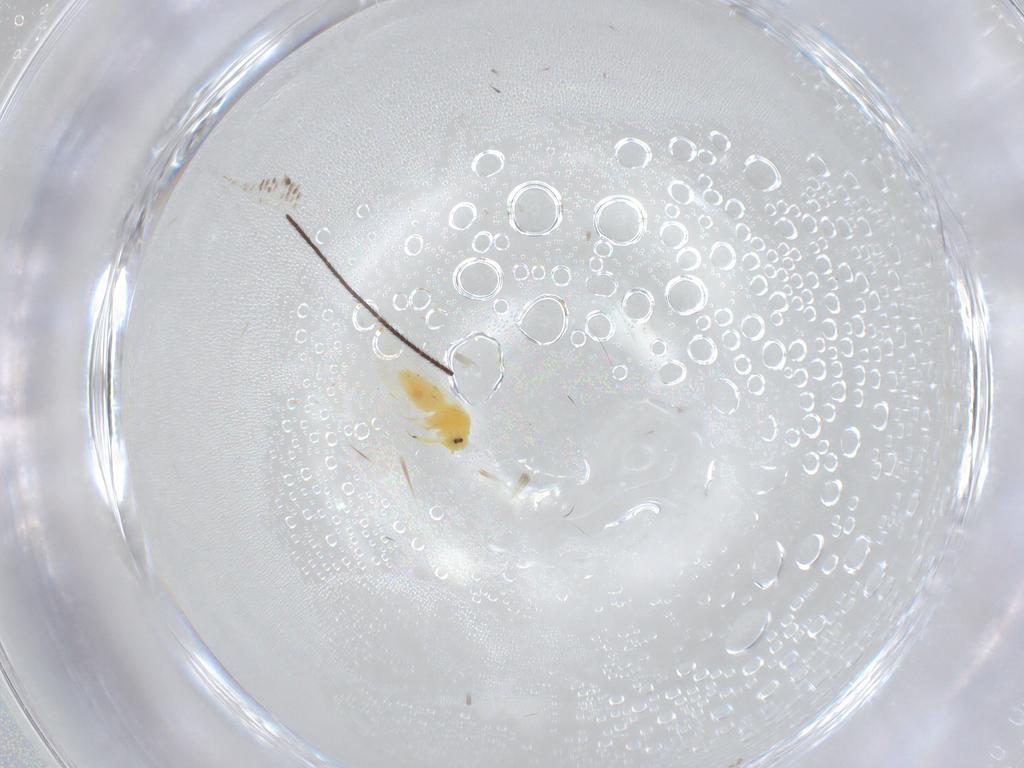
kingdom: Animalia
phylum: Arthropoda
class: Insecta
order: Hemiptera
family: Aleyrodidae
